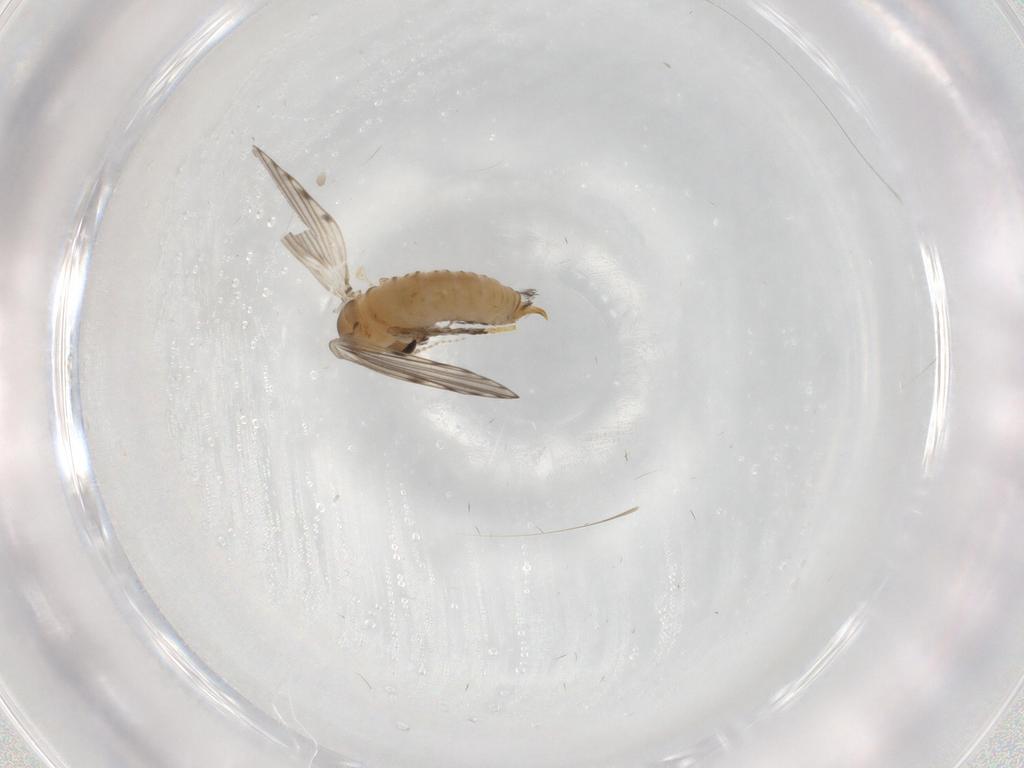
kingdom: Animalia
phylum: Arthropoda
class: Insecta
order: Diptera
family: Psychodidae
